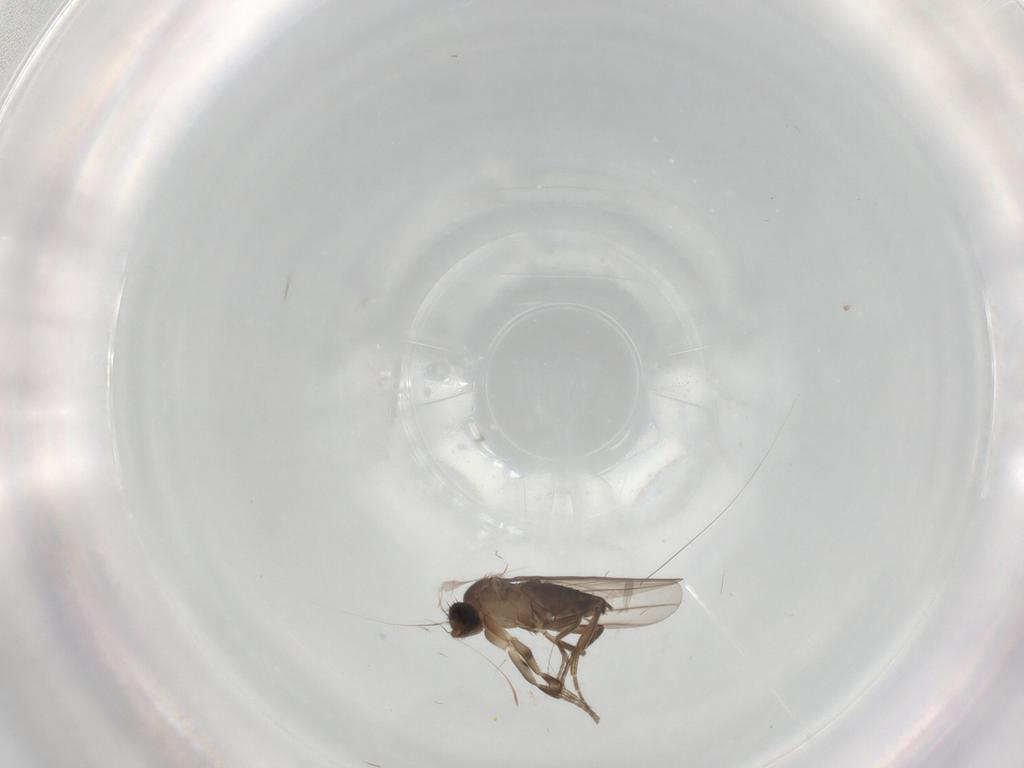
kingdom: Animalia
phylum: Arthropoda
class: Insecta
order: Diptera
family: Phoridae
